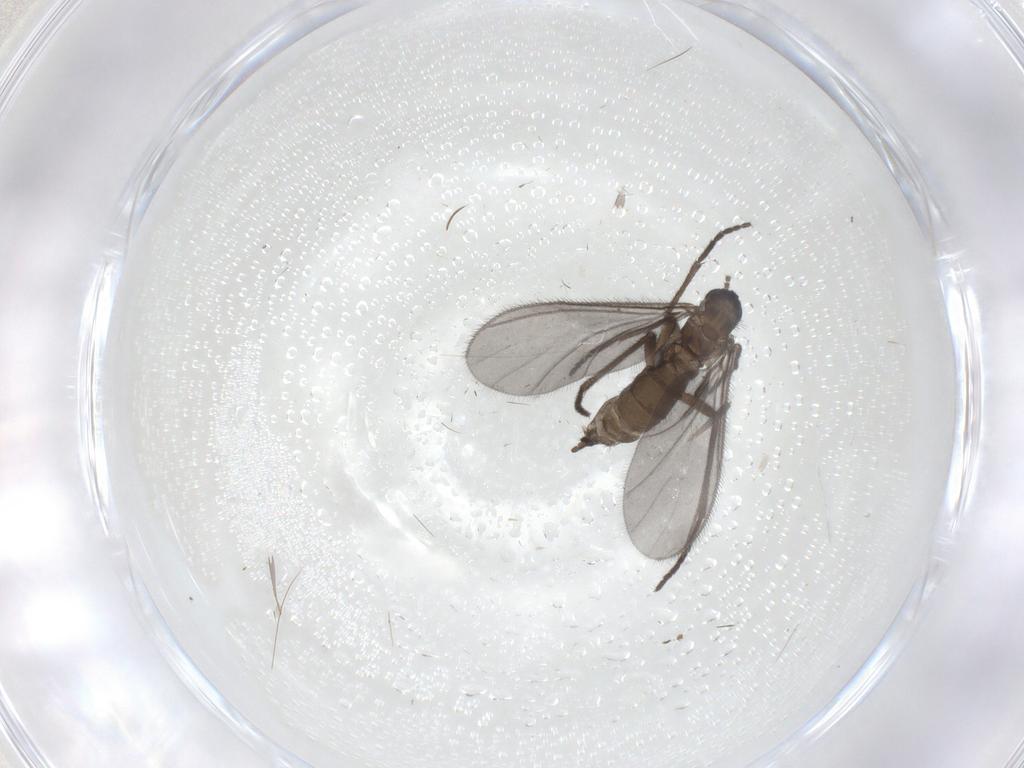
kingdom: Animalia
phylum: Arthropoda
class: Insecta
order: Diptera
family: Sciaridae
